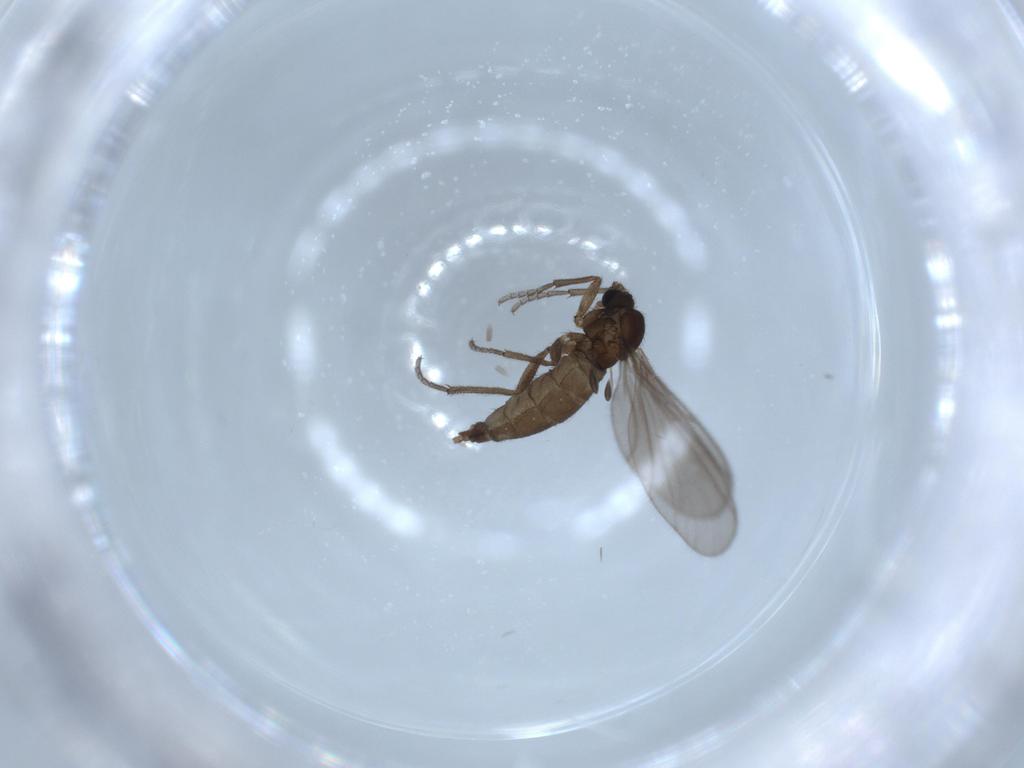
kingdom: Animalia
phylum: Arthropoda
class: Insecta
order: Diptera
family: Sciaridae
